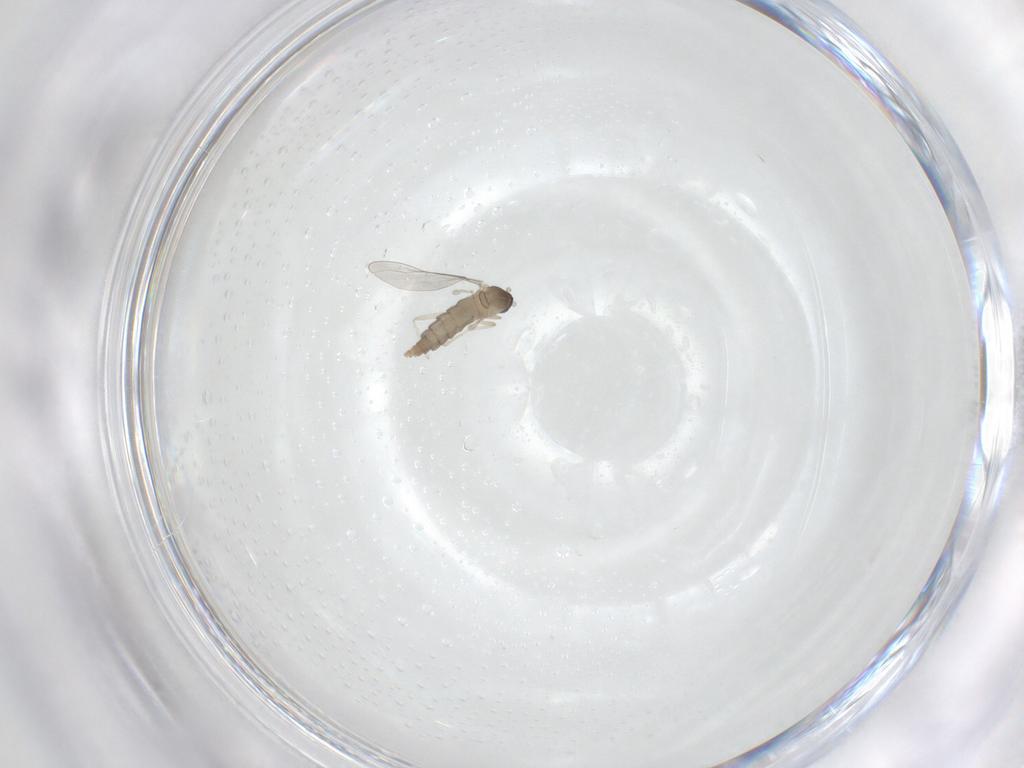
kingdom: Animalia
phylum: Arthropoda
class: Insecta
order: Diptera
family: Cecidomyiidae
